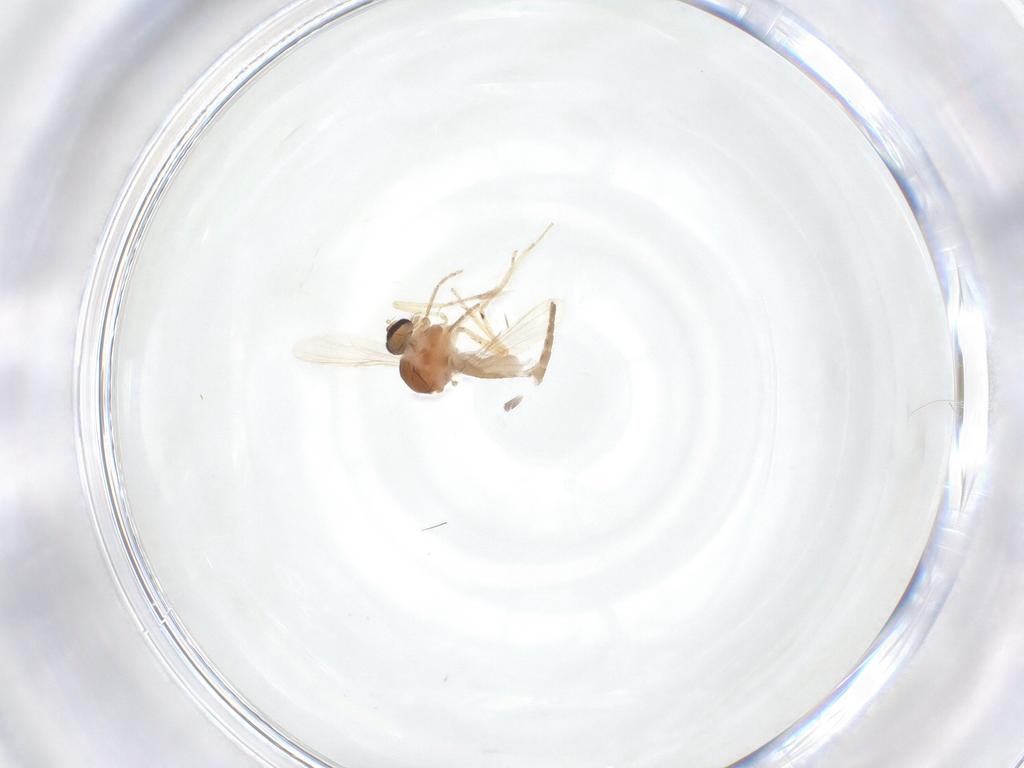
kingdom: Animalia
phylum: Arthropoda
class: Insecta
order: Diptera
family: Ceratopogonidae
